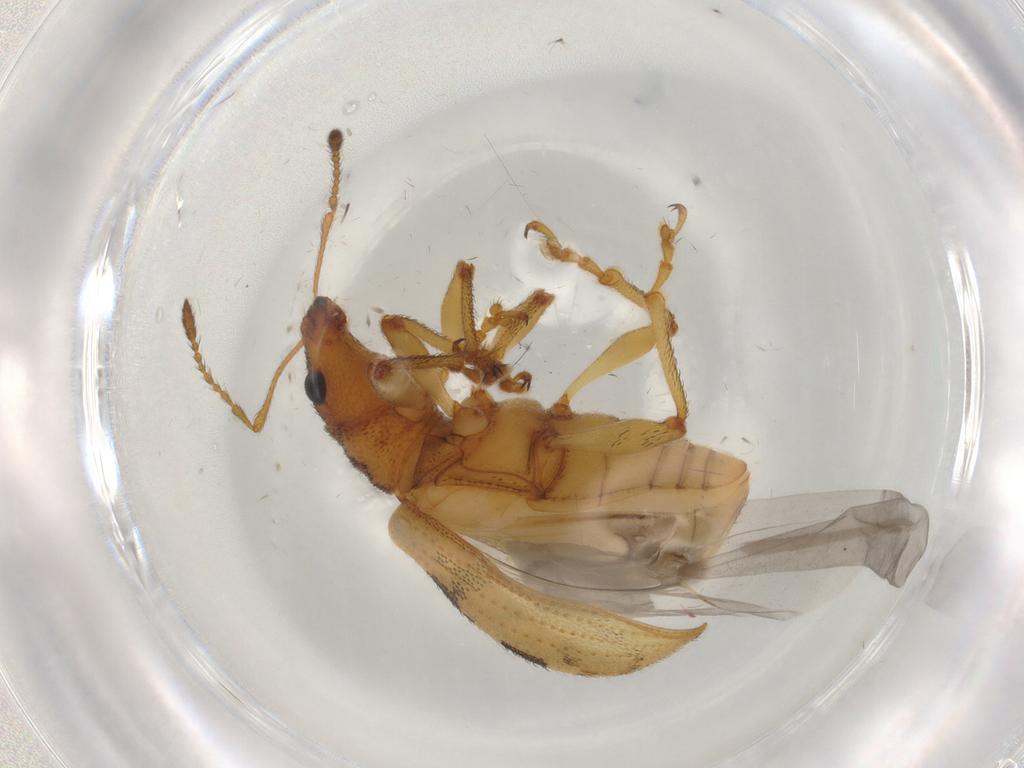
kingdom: Animalia
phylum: Arthropoda
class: Insecta
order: Coleoptera
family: Curculionidae
